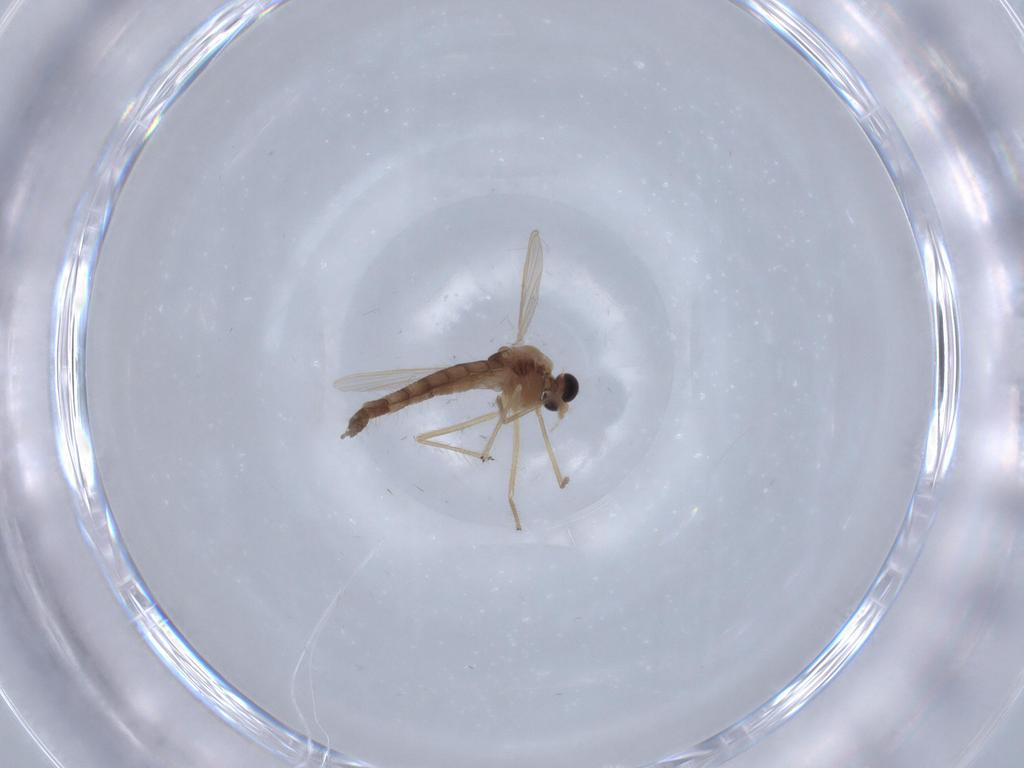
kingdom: Animalia
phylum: Arthropoda
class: Insecta
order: Diptera
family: Chironomidae
